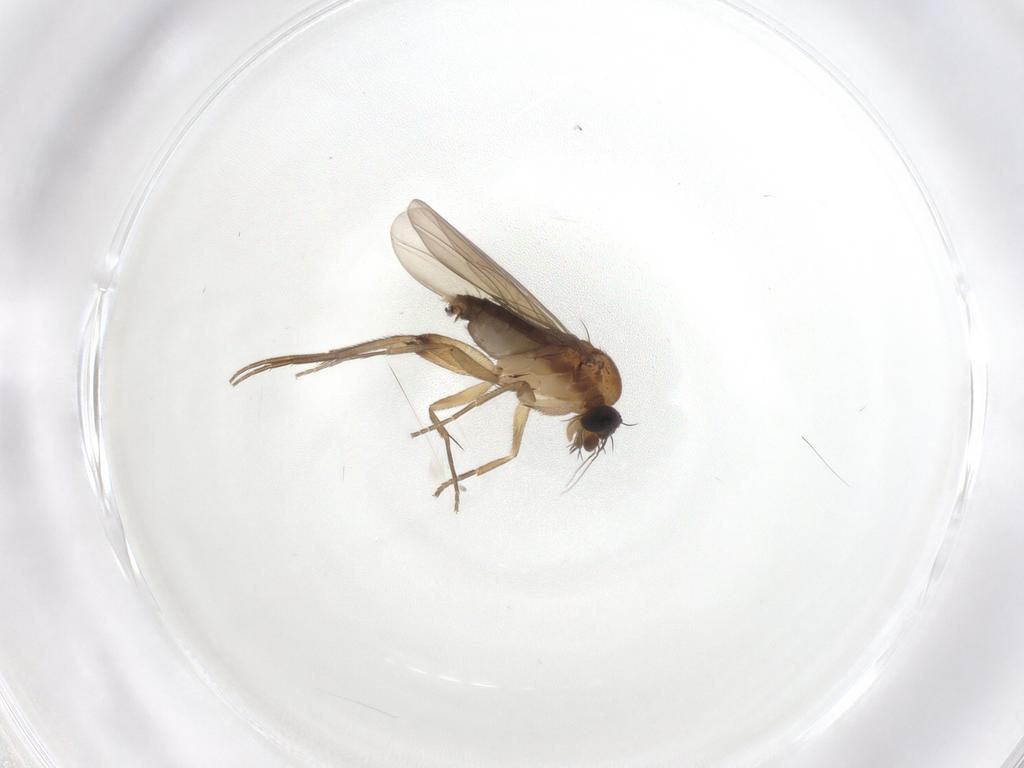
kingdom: Animalia
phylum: Arthropoda
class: Insecta
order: Diptera
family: Phoridae
